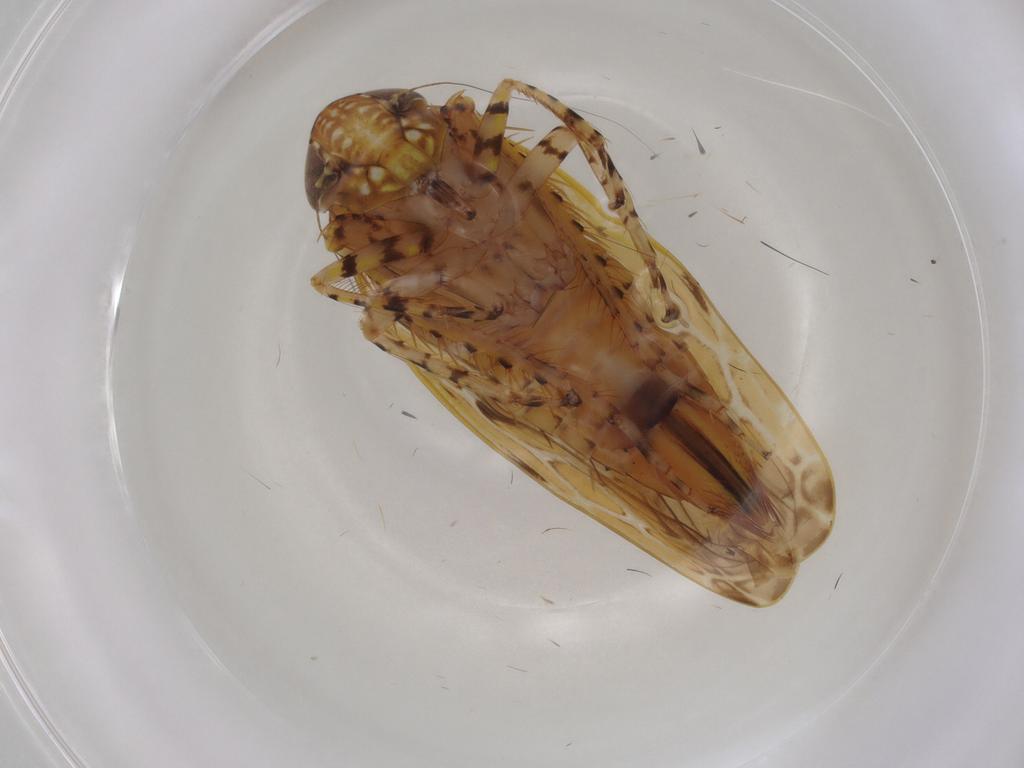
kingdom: Animalia
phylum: Arthropoda
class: Insecta
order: Hemiptera
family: Cicadellidae
